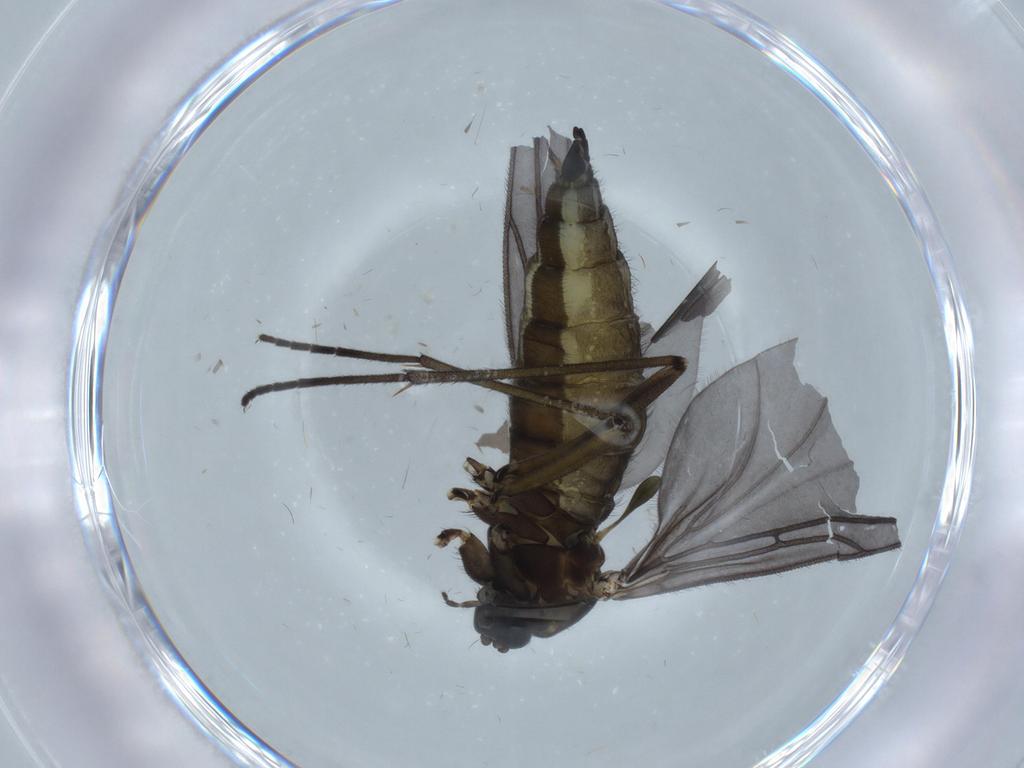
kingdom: Animalia
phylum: Arthropoda
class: Insecta
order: Diptera
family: Sciaridae
